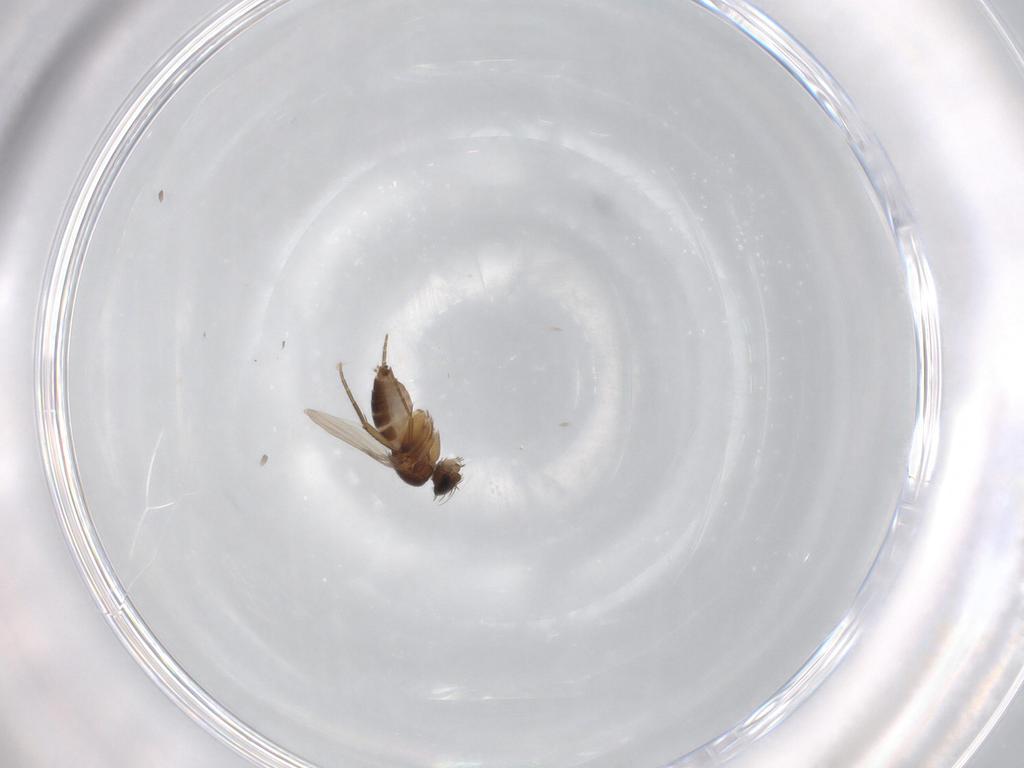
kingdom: Animalia
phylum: Arthropoda
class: Insecta
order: Diptera
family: Phoridae
